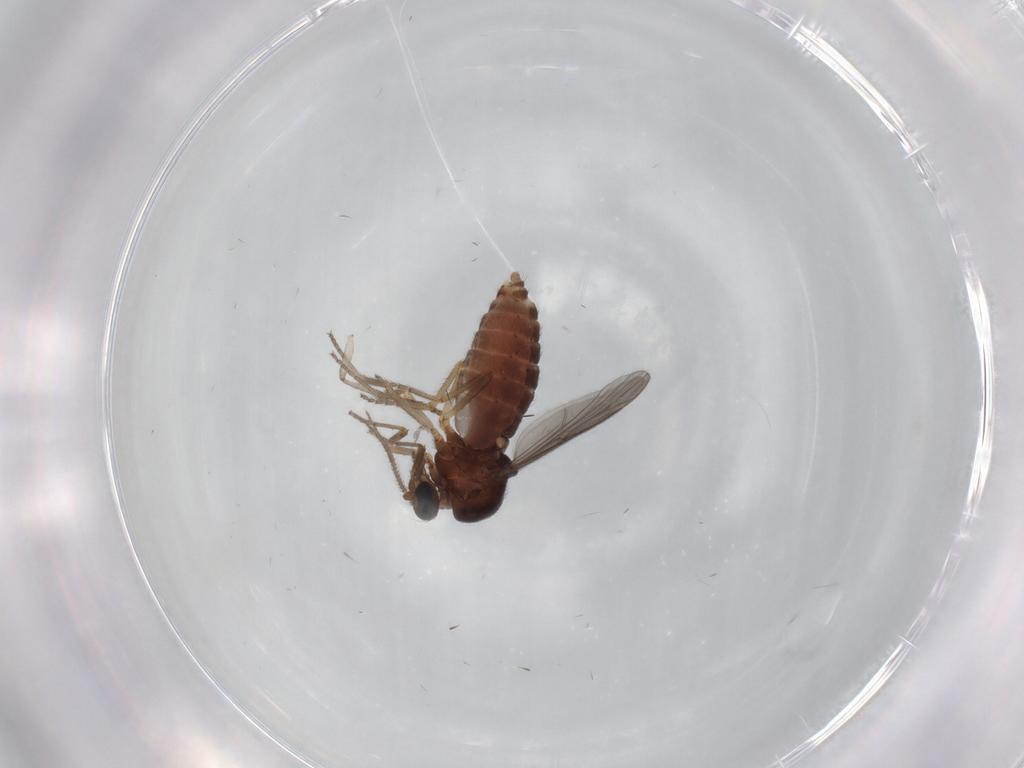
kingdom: Animalia
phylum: Arthropoda
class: Insecta
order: Diptera
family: Ceratopogonidae
